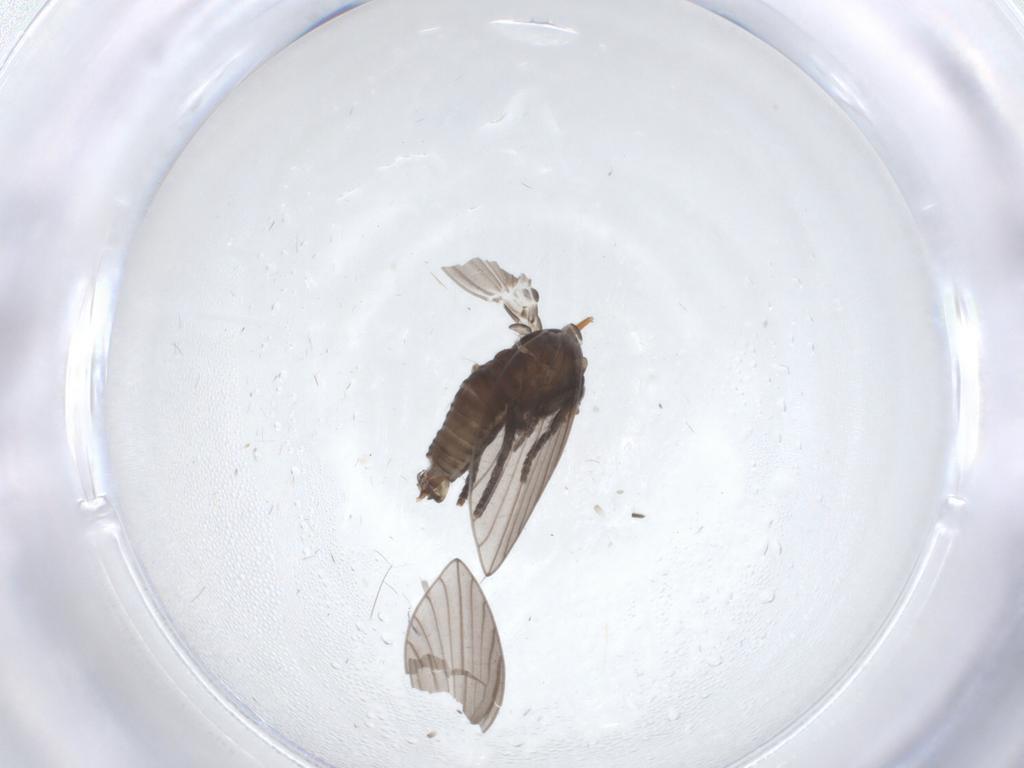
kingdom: Animalia
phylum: Arthropoda
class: Insecta
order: Diptera
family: Psychodidae
